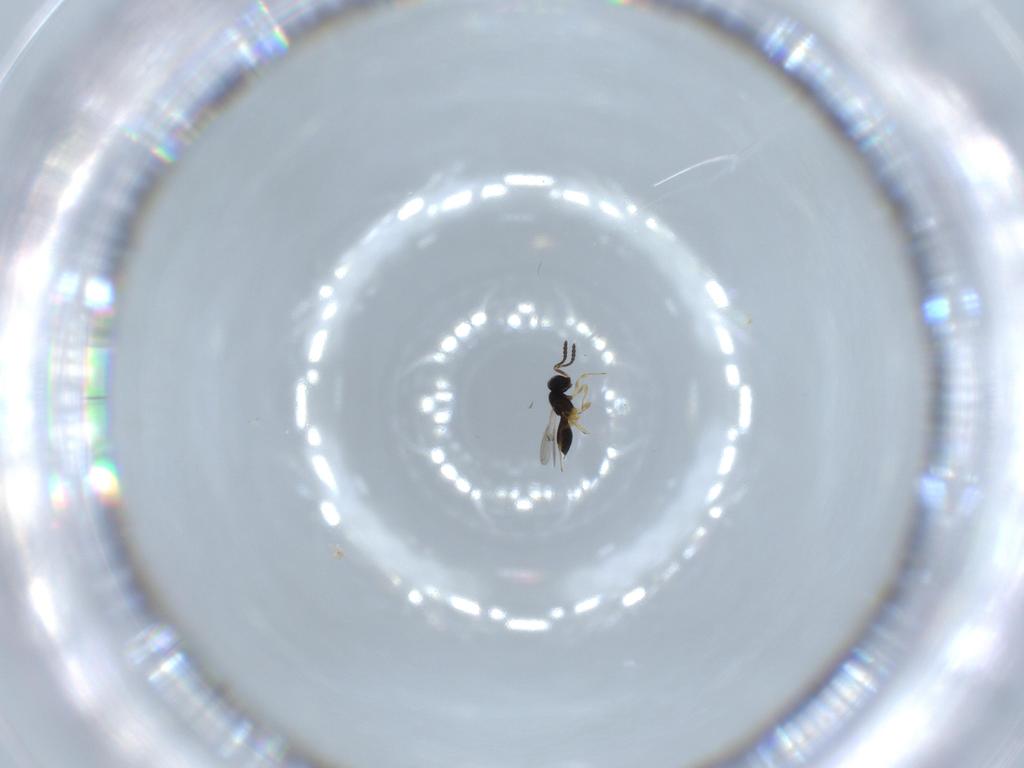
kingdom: Animalia
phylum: Arthropoda
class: Insecta
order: Hymenoptera
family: Scelionidae
